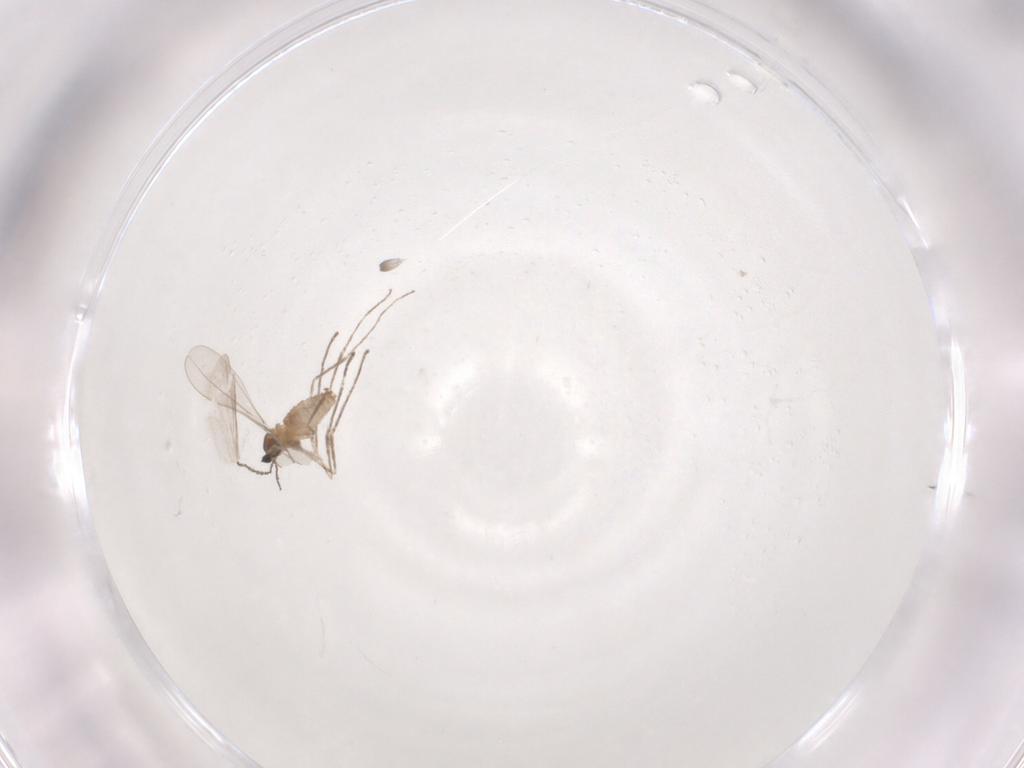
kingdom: Animalia
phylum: Arthropoda
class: Insecta
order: Diptera
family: Cecidomyiidae
